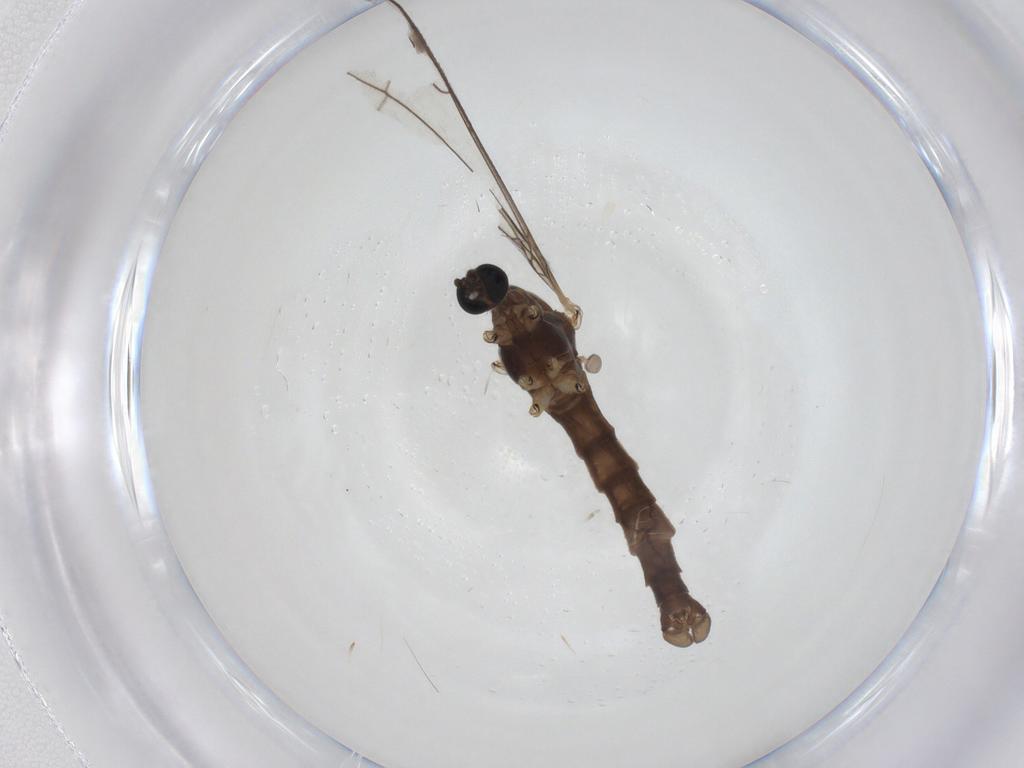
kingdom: Animalia
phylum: Arthropoda
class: Insecta
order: Diptera
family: Limoniidae
